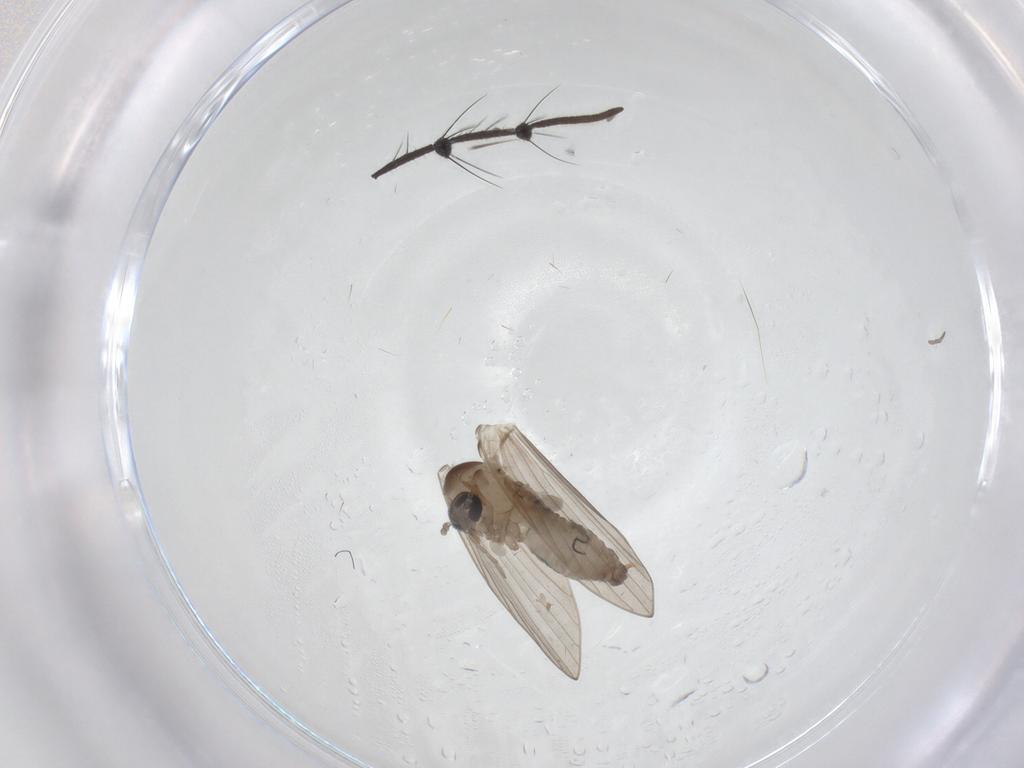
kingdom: Animalia
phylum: Arthropoda
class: Insecta
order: Diptera
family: Psychodidae
